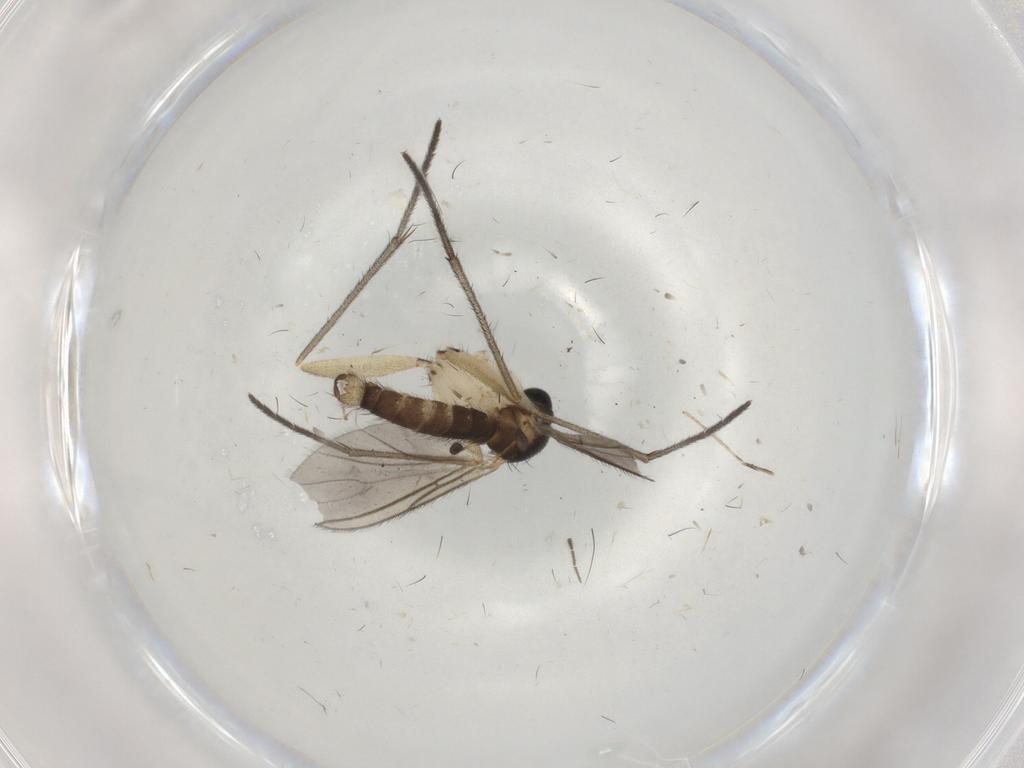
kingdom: Animalia
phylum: Arthropoda
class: Insecta
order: Diptera
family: Sciaridae
